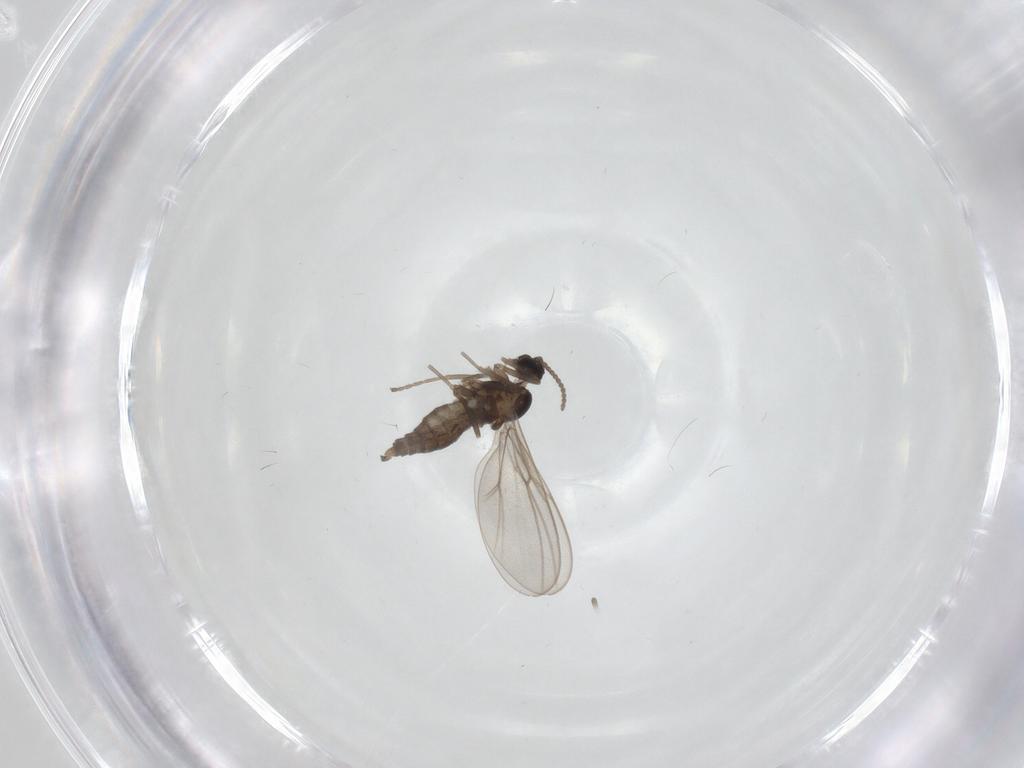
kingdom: Animalia
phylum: Arthropoda
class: Insecta
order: Diptera
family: Cecidomyiidae
